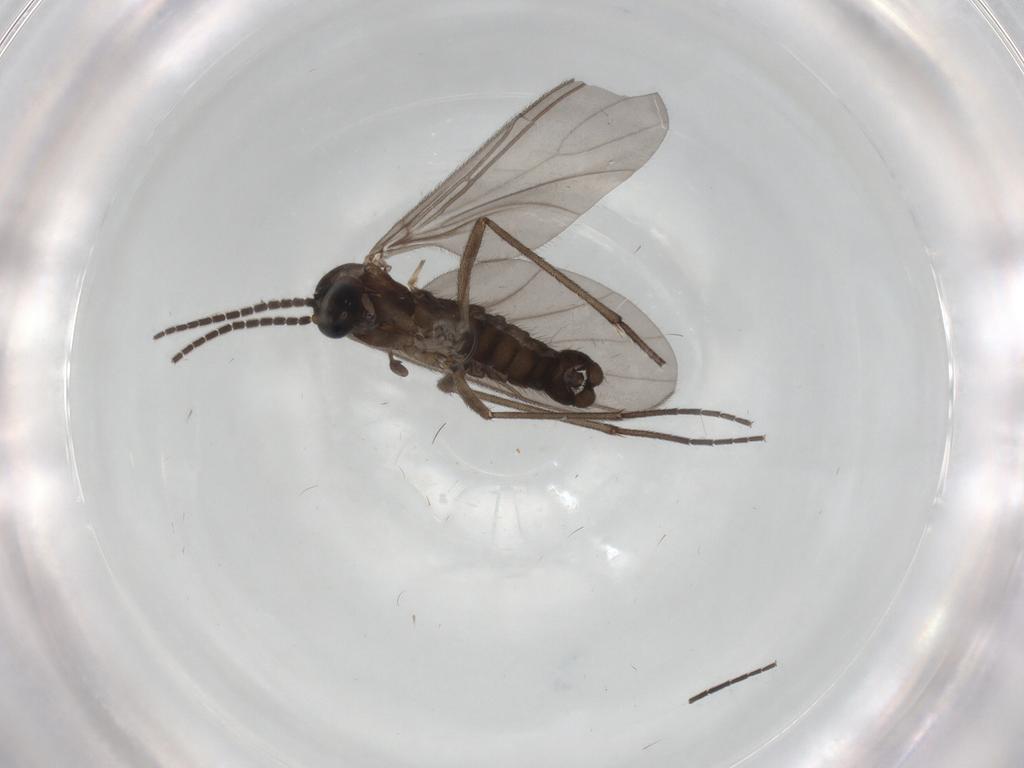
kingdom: Animalia
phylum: Arthropoda
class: Insecta
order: Diptera
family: Sciaridae
